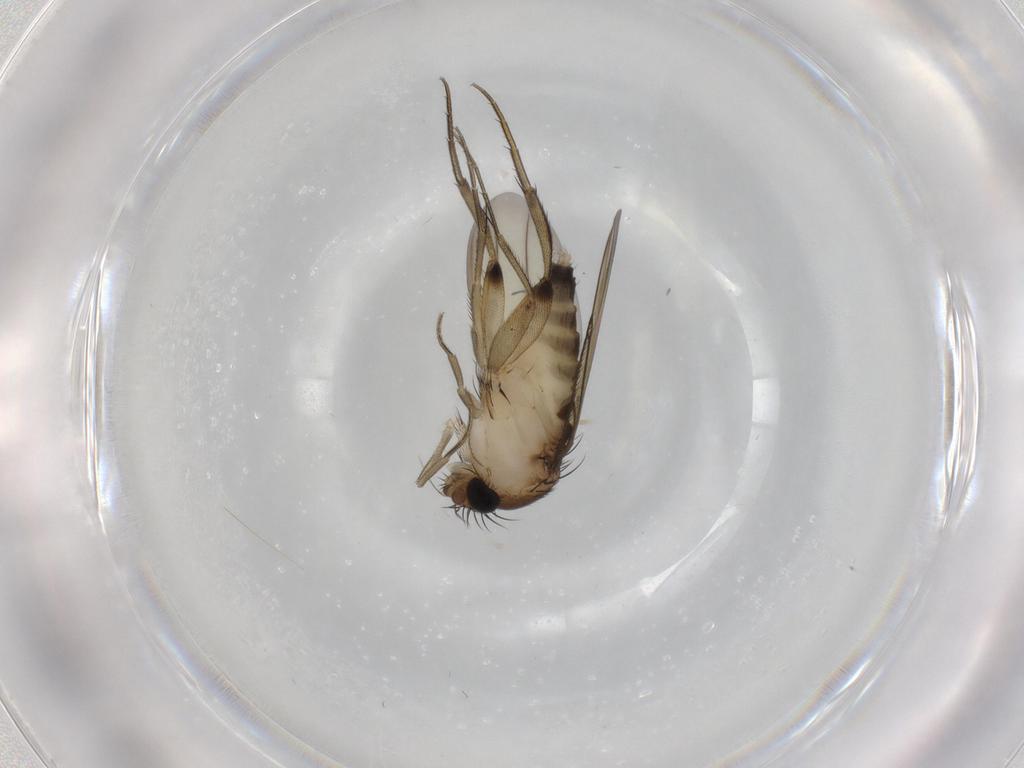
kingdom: Animalia
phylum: Arthropoda
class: Insecta
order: Diptera
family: Phoridae
